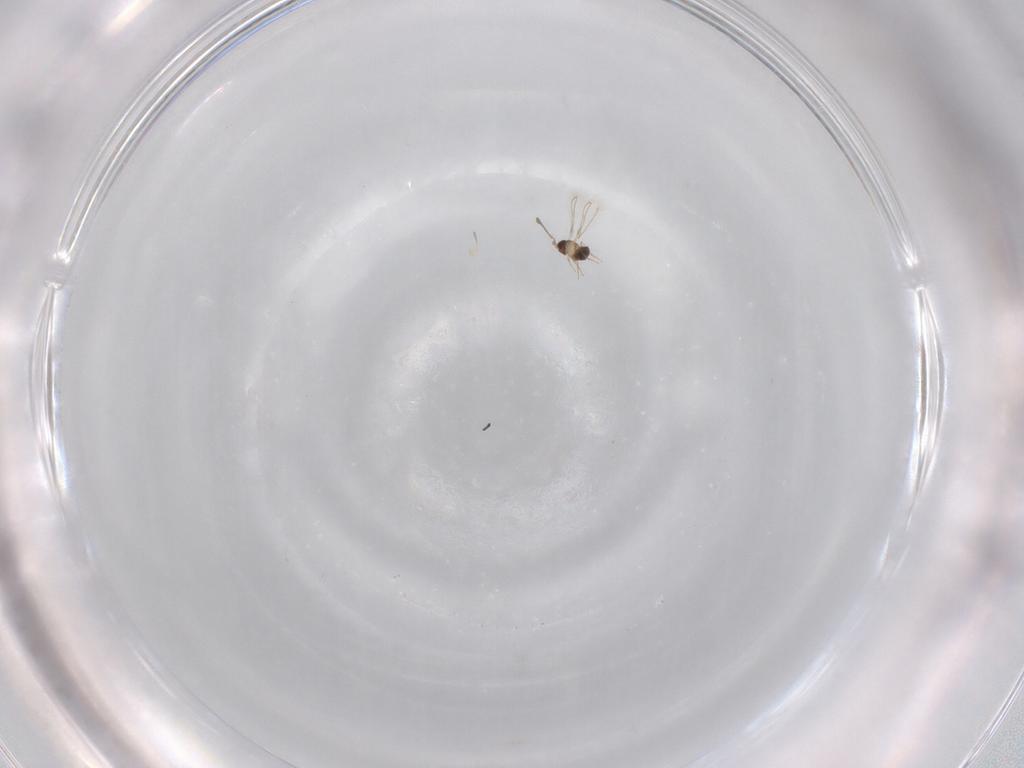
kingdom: Animalia
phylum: Arthropoda
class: Insecta
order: Hymenoptera
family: Mymaridae
